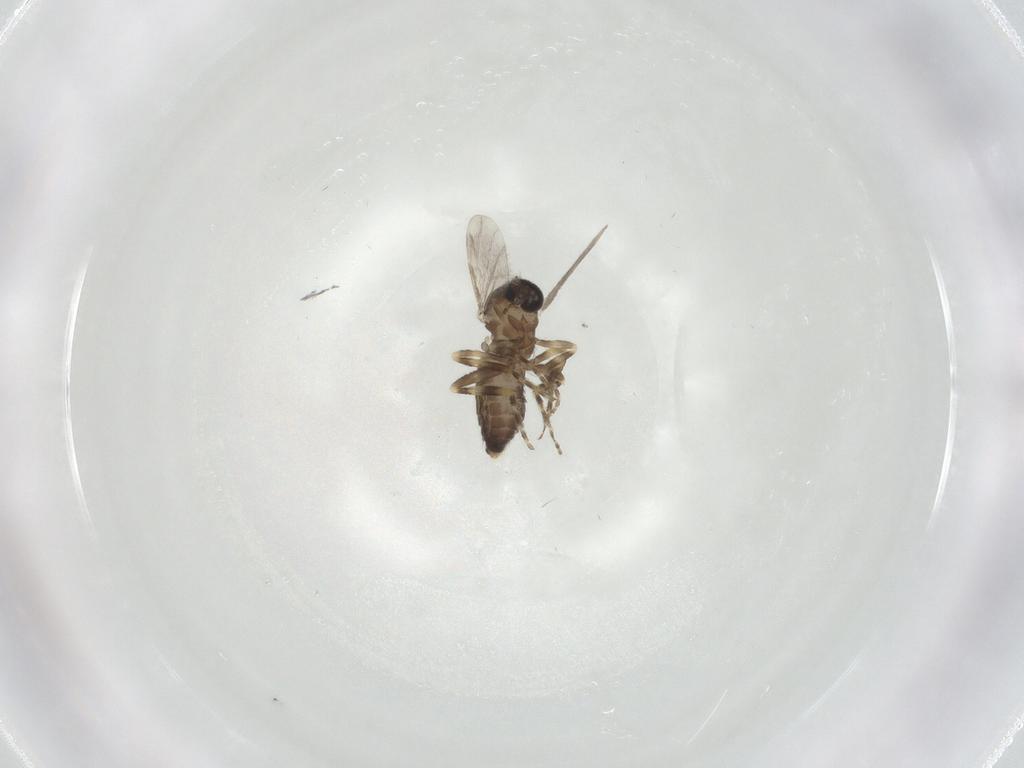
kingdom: Animalia
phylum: Arthropoda
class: Insecta
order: Diptera
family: Ceratopogonidae
